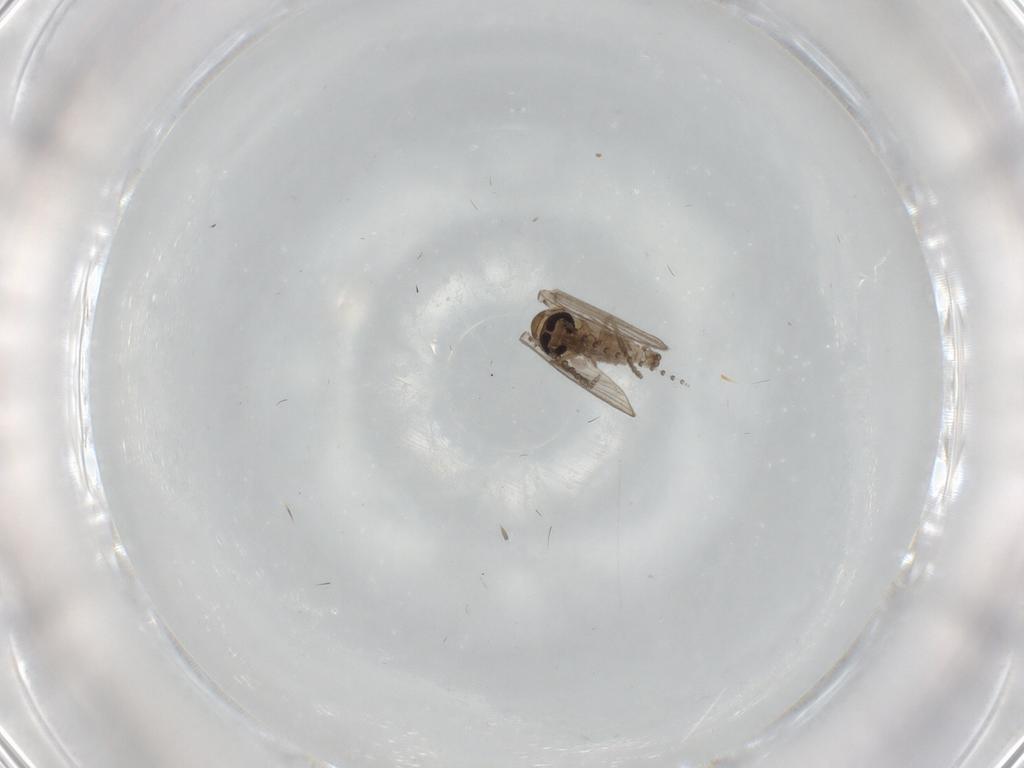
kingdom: Animalia
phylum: Arthropoda
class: Insecta
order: Diptera
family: Psychodidae
